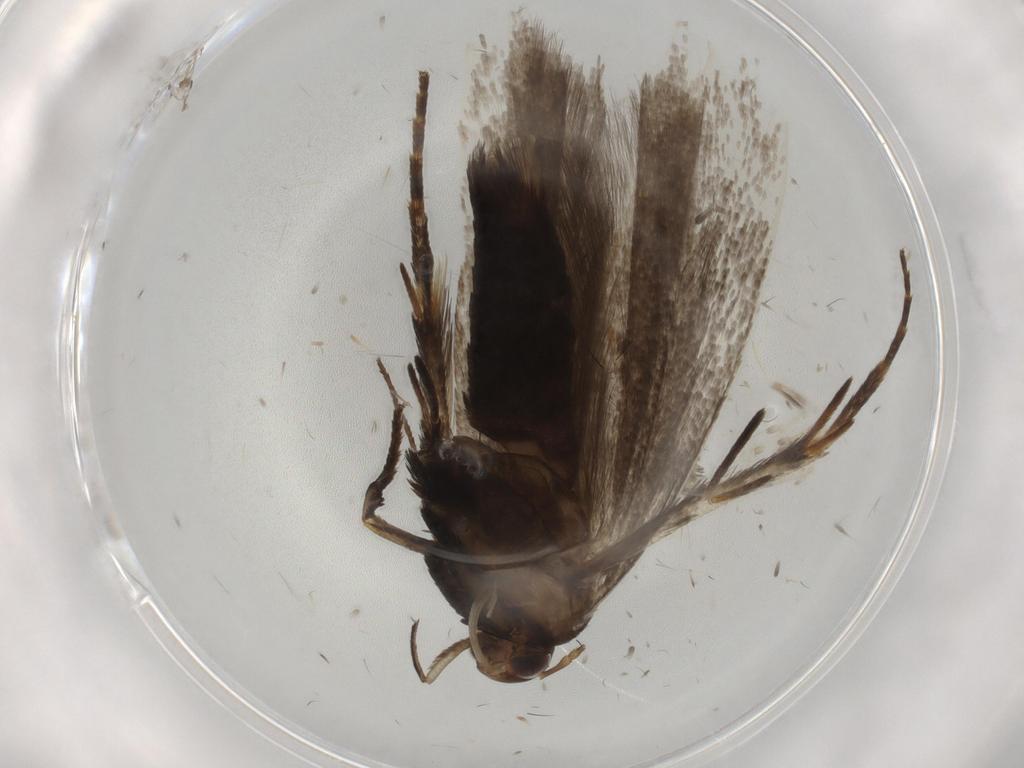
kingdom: Animalia
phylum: Arthropoda
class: Insecta
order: Lepidoptera
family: Gelechiidae
